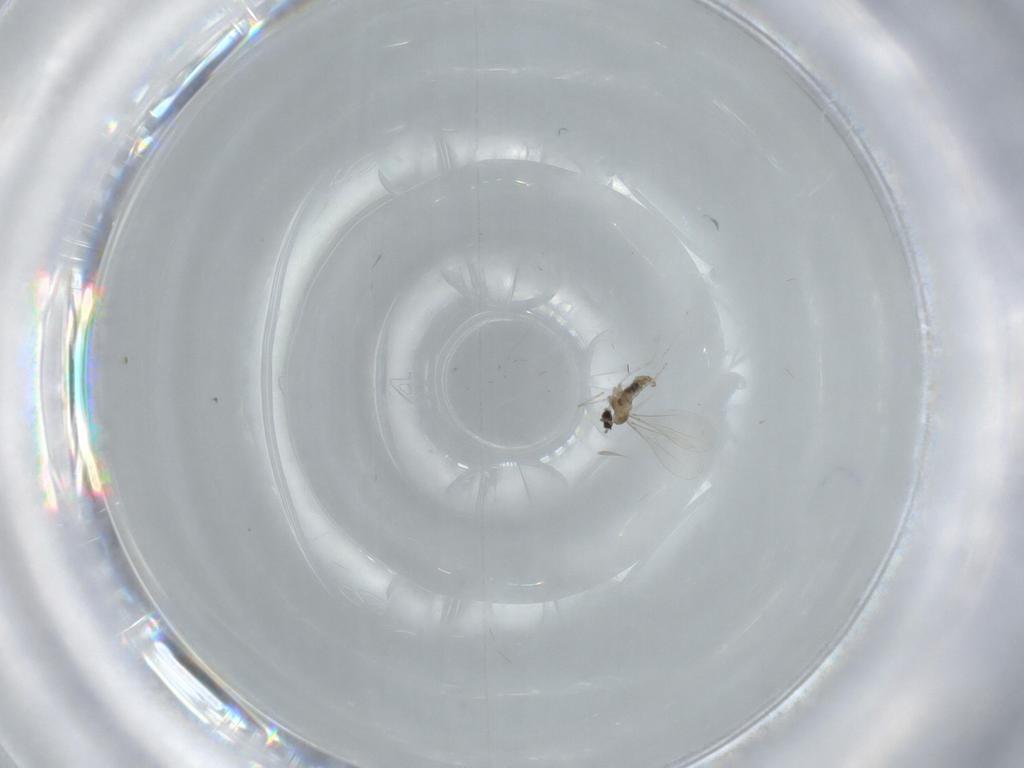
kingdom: Animalia
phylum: Arthropoda
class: Insecta
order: Diptera
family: Cecidomyiidae
